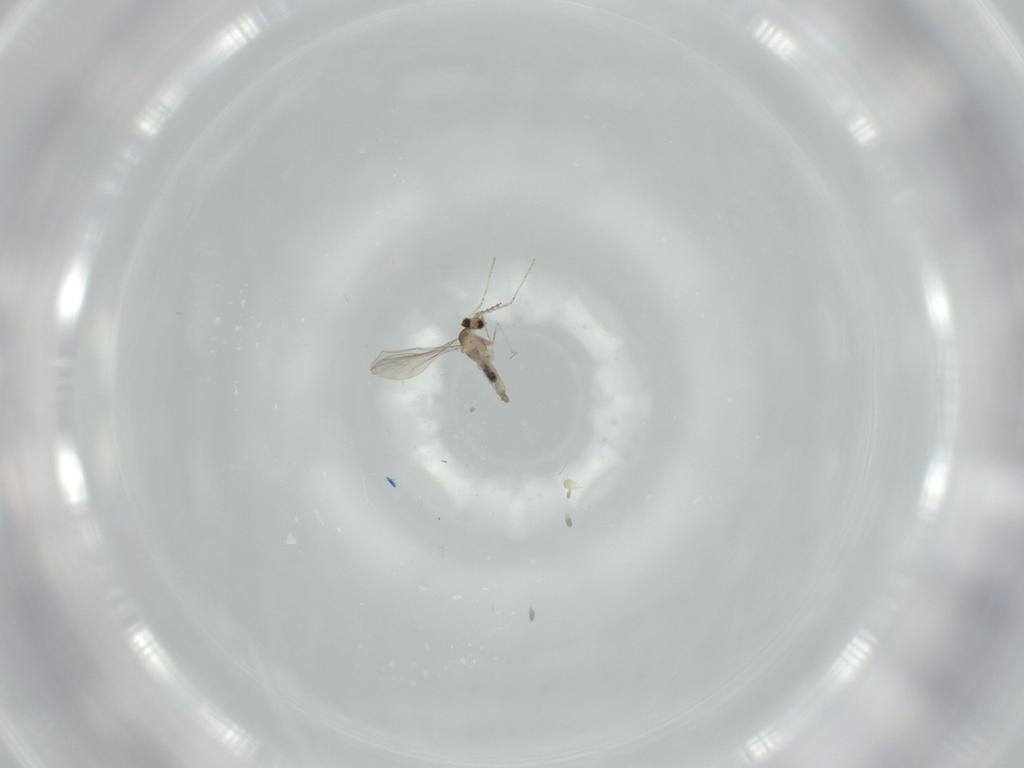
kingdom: Animalia
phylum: Arthropoda
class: Insecta
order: Diptera
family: Cecidomyiidae
